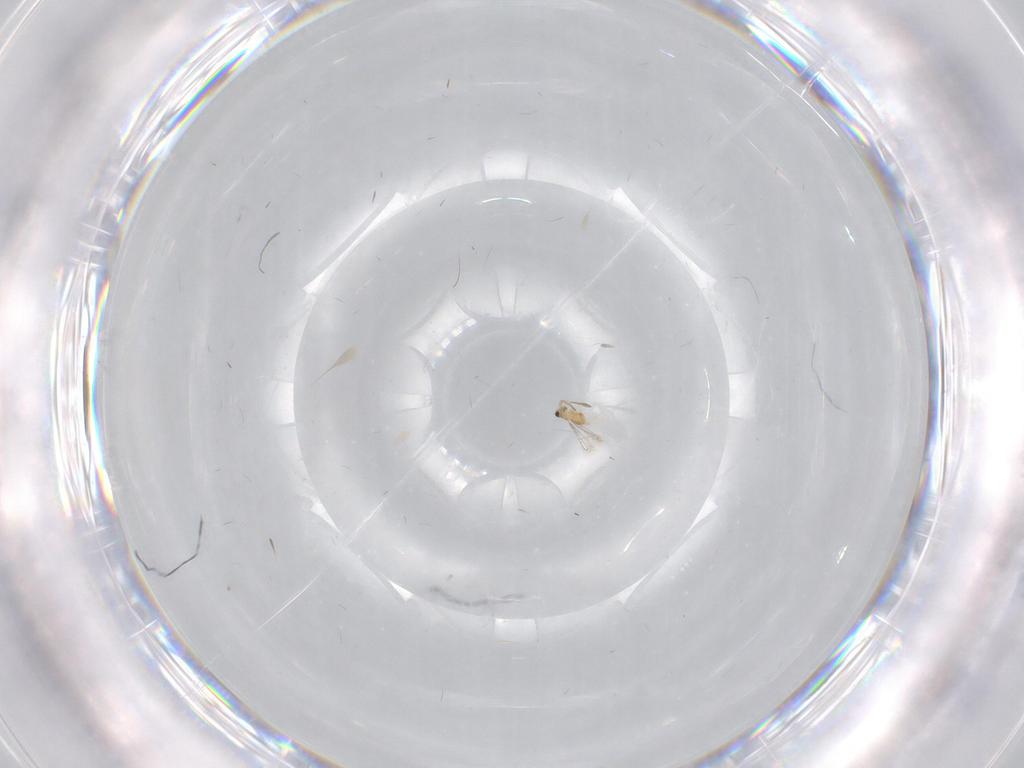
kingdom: Animalia
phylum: Arthropoda
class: Insecta
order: Hymenoptera
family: Mymaridae
